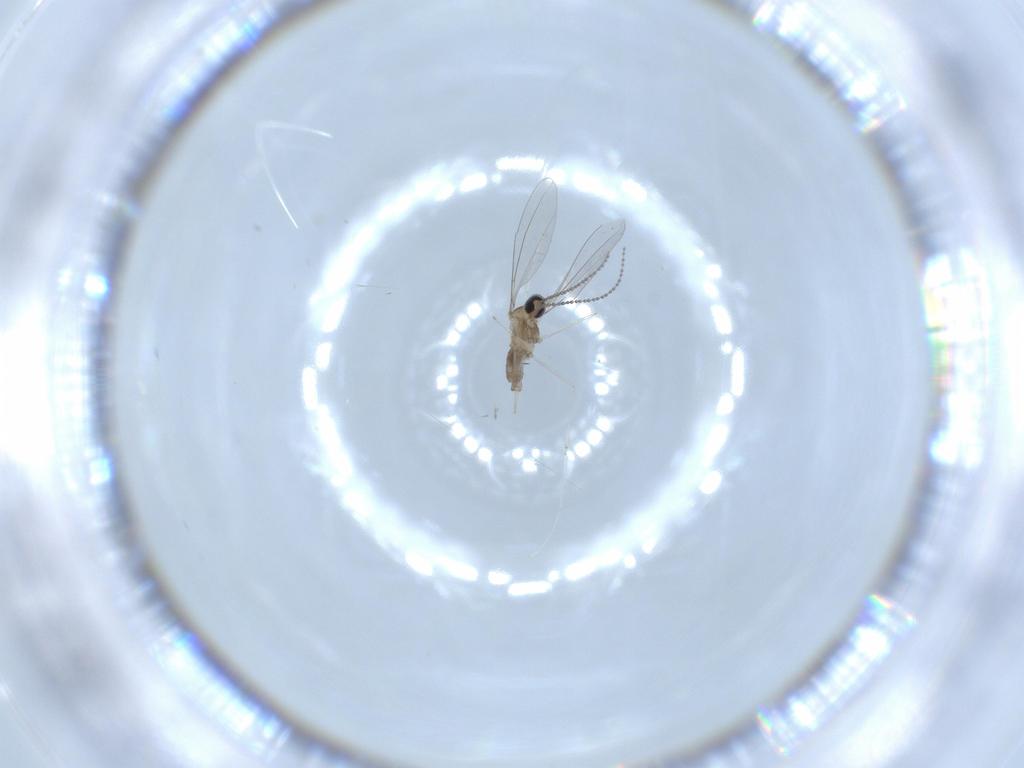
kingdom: Animalia
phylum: Arthropoda
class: Insecta
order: Diptera
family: Cecidomyiidae
